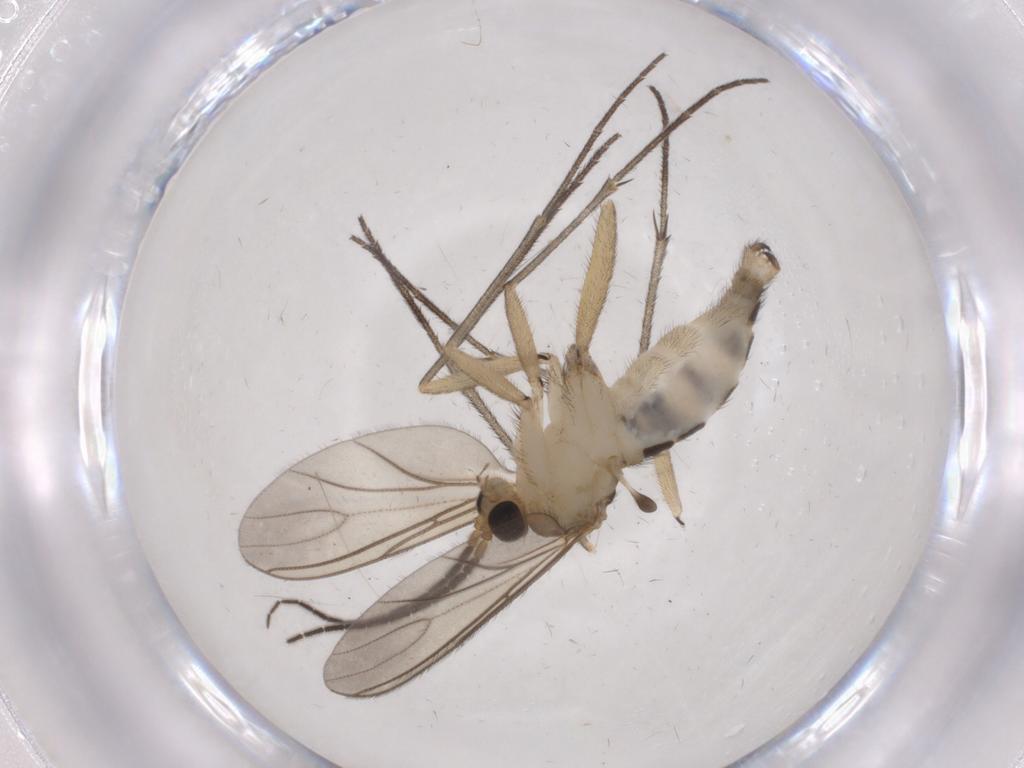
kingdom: Animalia
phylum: Arthropoda
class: Insecta
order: Diptera
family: Sciaridae
